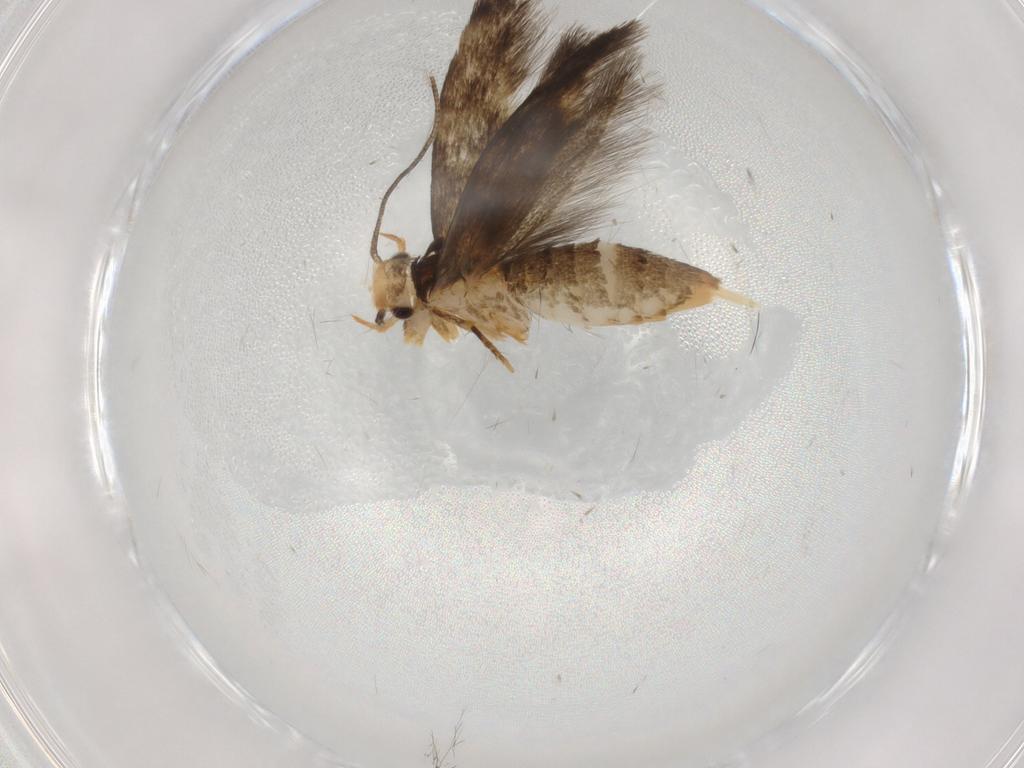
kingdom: Animalia
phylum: Arthropoda
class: Insecta
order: Lepidoptera
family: Tineidae
